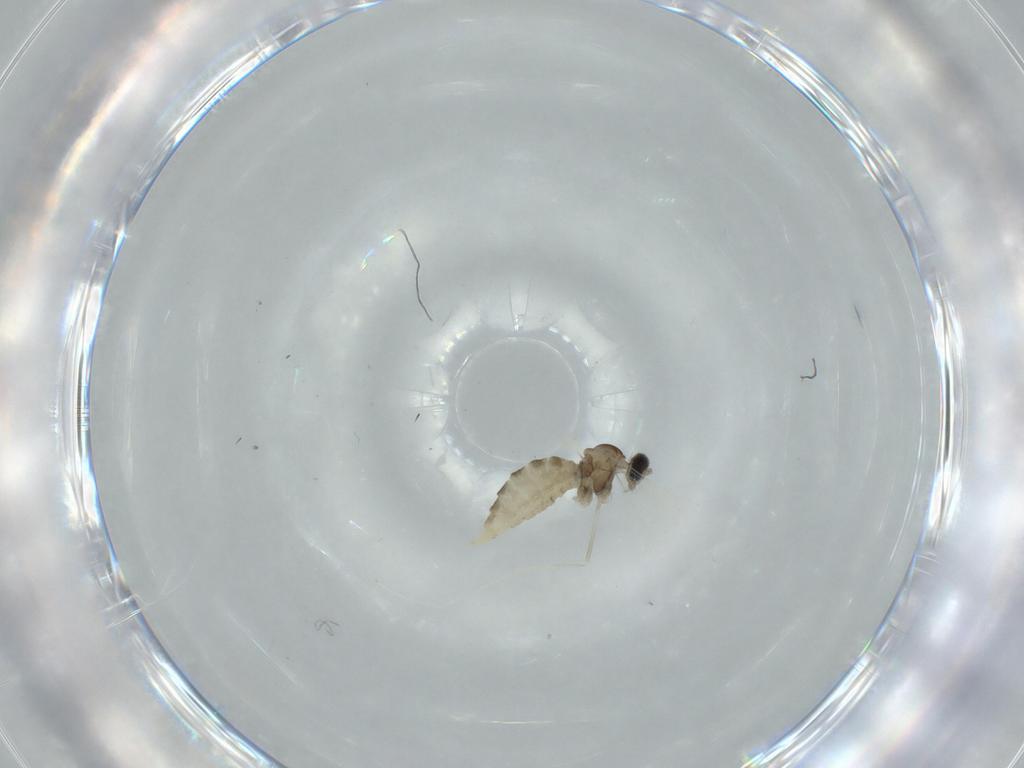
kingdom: Animalia
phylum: Arthropoda
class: Insecta
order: Diptera
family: Cecidomyiidae
